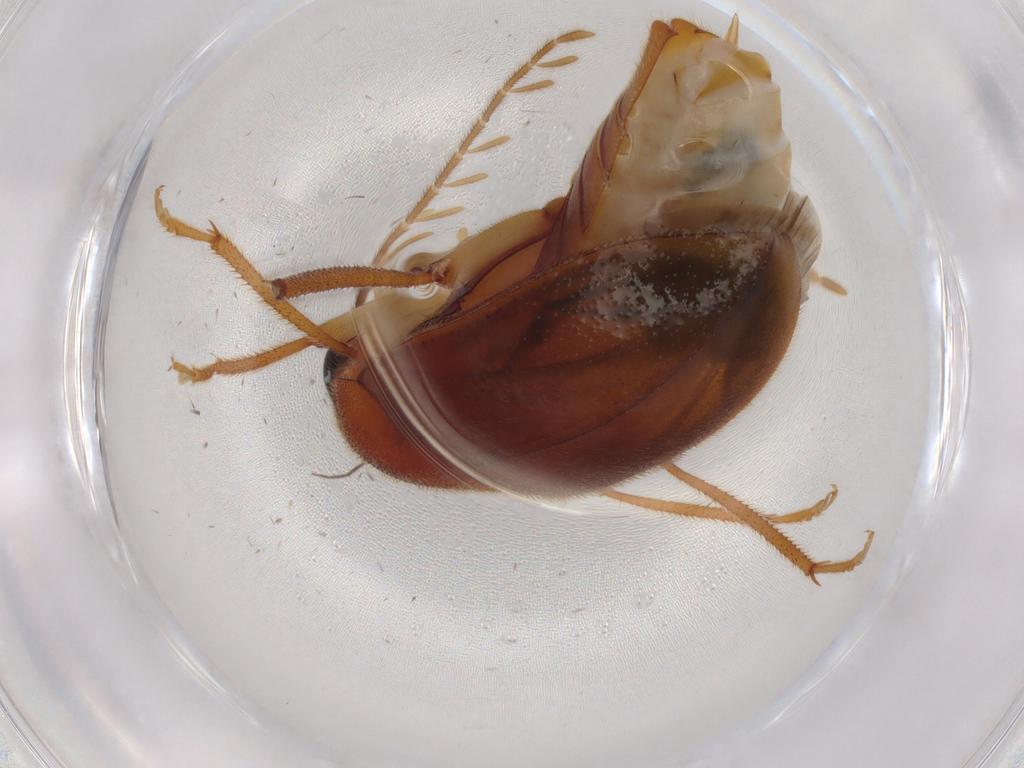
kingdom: Animalia
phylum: Arthropoda
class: Insecta
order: Coleoptera
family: Ptilodactylidae
